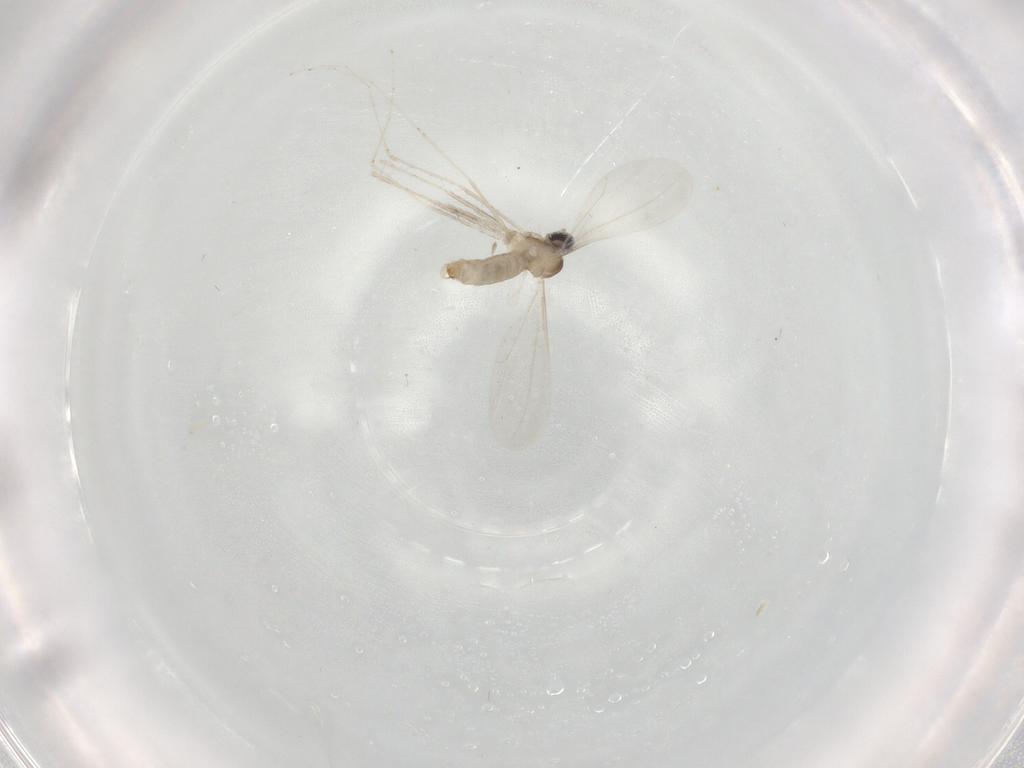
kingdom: Animalia
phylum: Arthropoda
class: Insecta
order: Diptera
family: Cecidomyiidae
